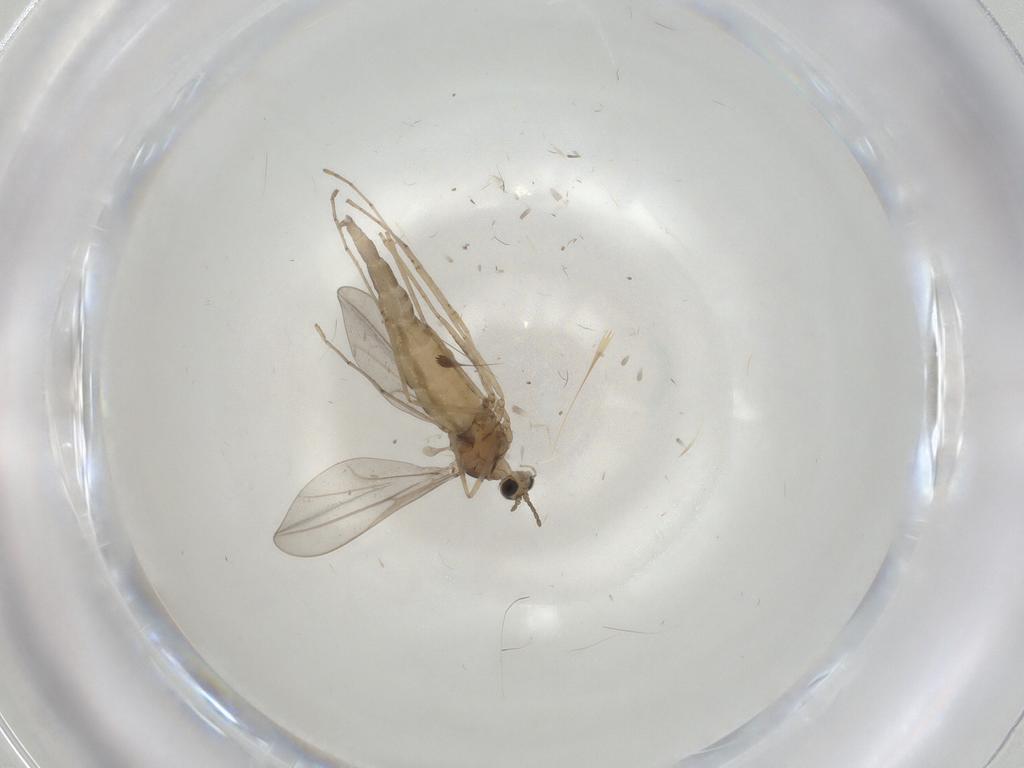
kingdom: Animalia
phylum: Arthropoda
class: Insecta
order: Diptera
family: Cecidomyiidae
